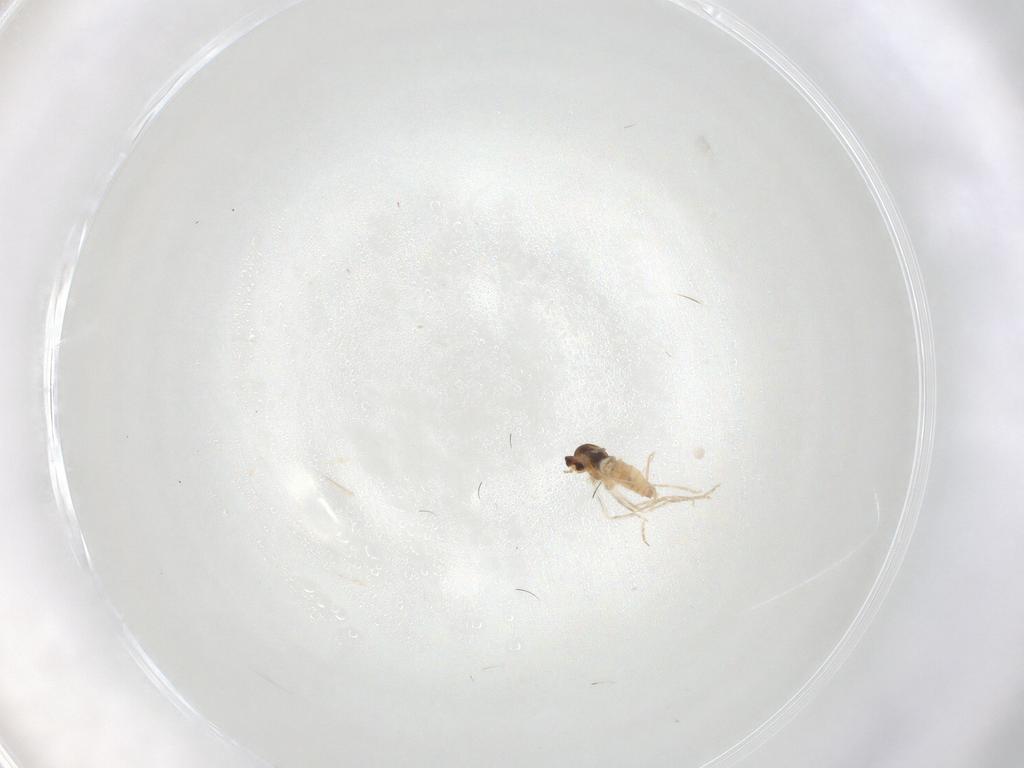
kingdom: Animalia
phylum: Arthropoda
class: Insecta
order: Diptera
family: Cecidomyiidae
